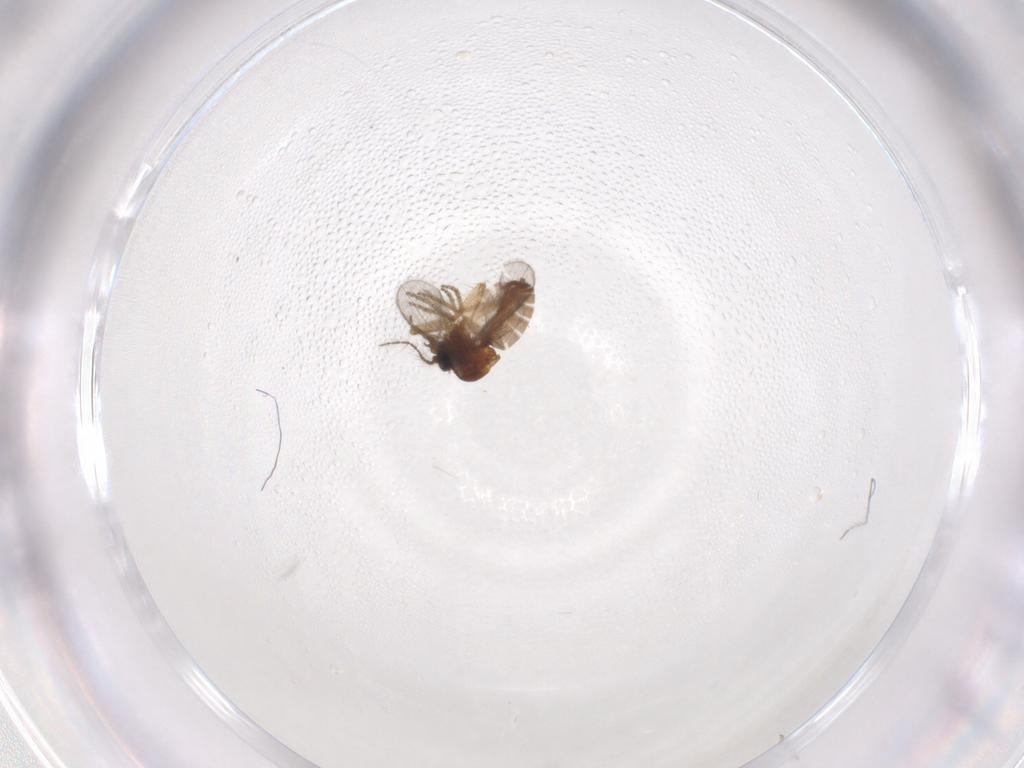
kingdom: Animalia
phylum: Arthropoda
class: Insecta
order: Diptera
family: Ceratopogonidae
